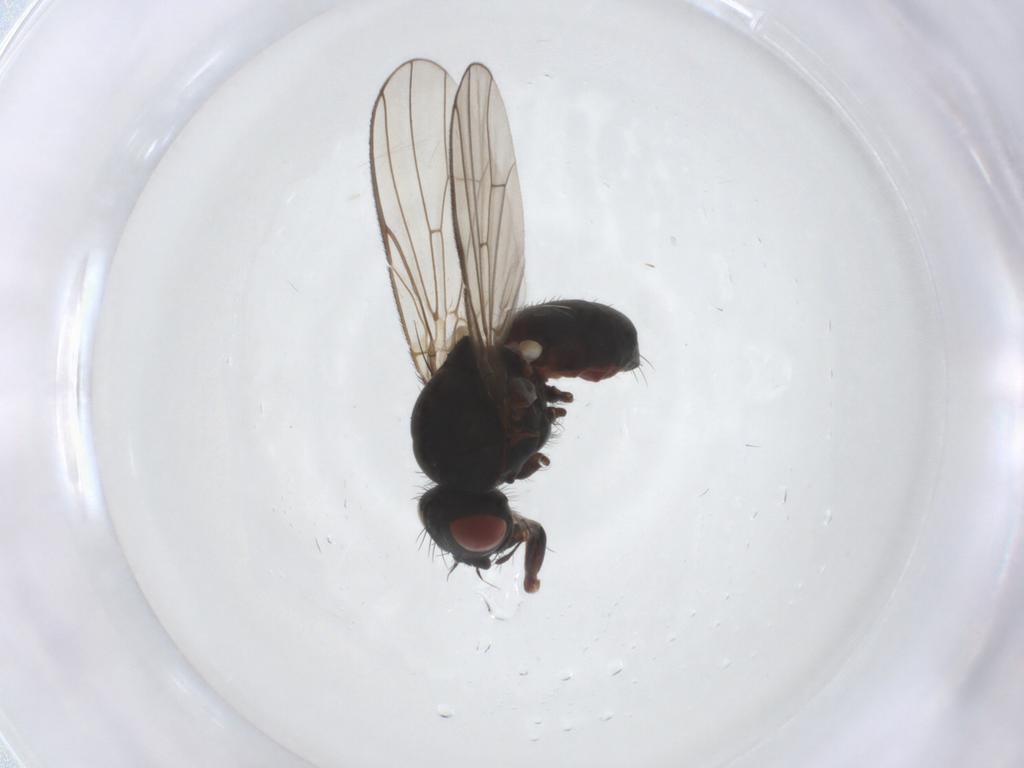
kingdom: Animalia
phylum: Arthropoda
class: Insecta
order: Diptera
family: Anthomyiidae
